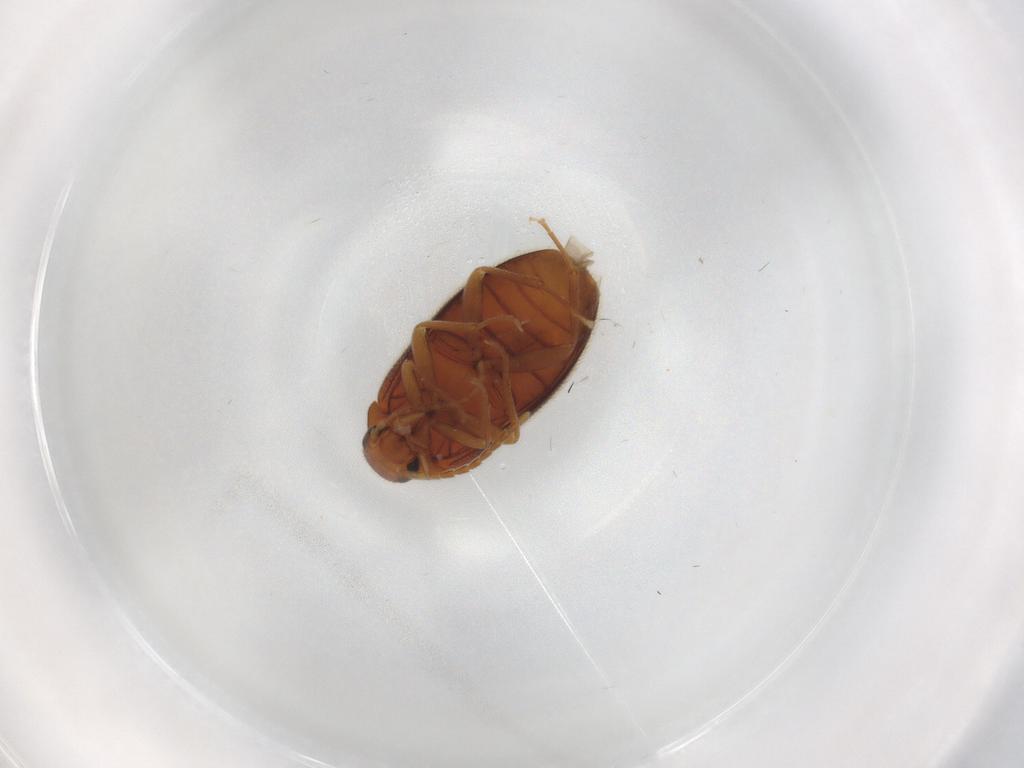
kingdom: Animalia
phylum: Arthropoda
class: Insecta
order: Coleoptera
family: Scraptiidae
